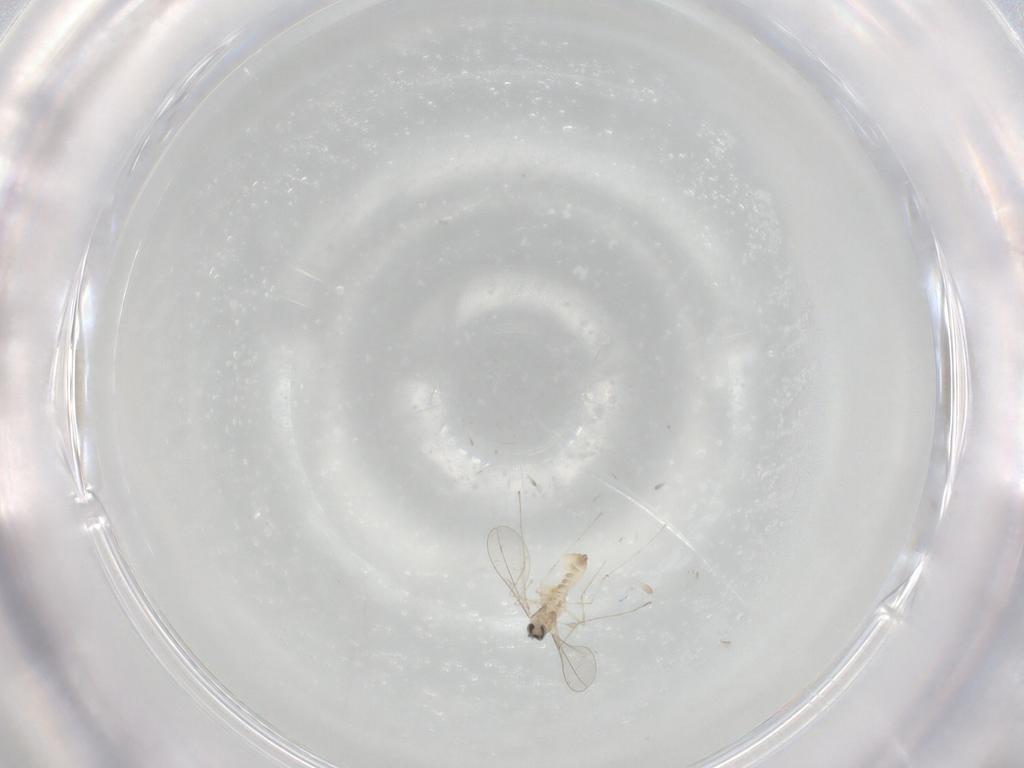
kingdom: Animalia
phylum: Arthropoda
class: Insecta
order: Diptera
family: Cecidomyiidae
